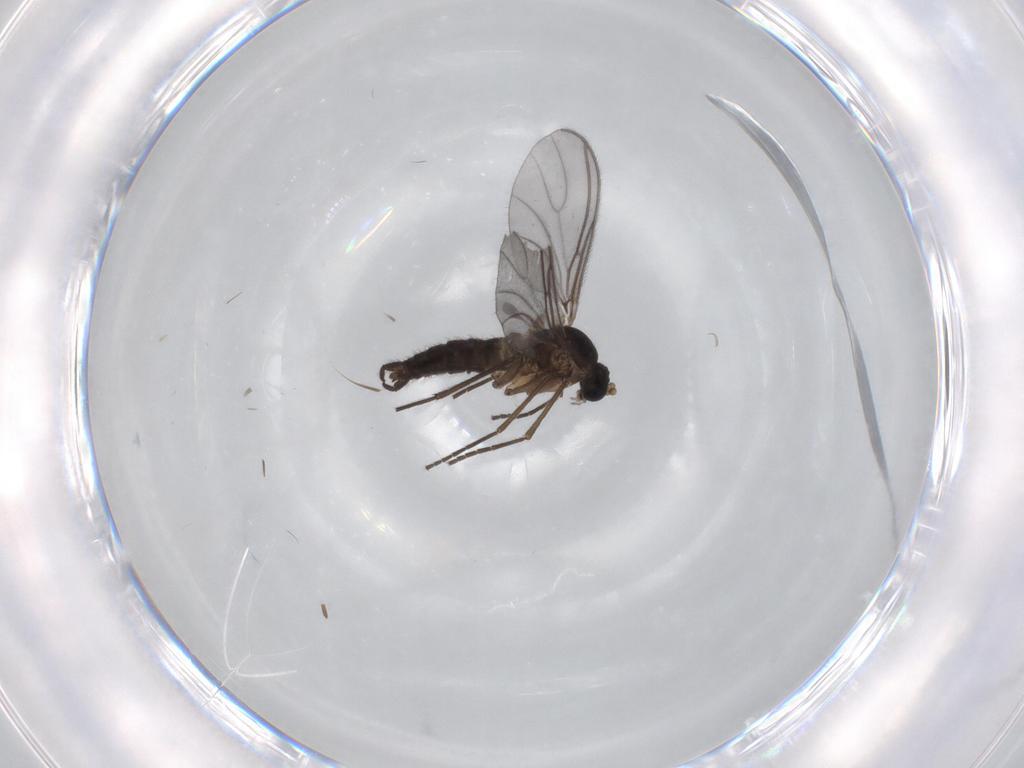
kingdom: Animalia
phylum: Arthropoda
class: Insecta
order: Diptera
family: Sciaridae
